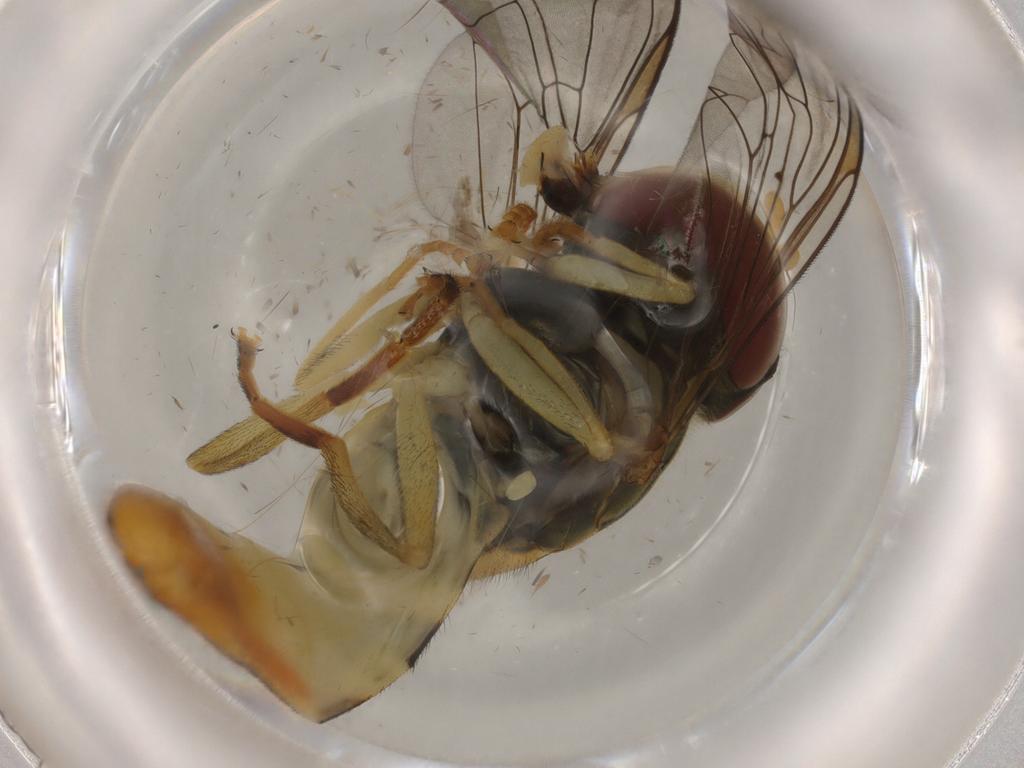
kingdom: Animalia
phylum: Arthropoda
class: Insecta
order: Diptera
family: Syrphidae
